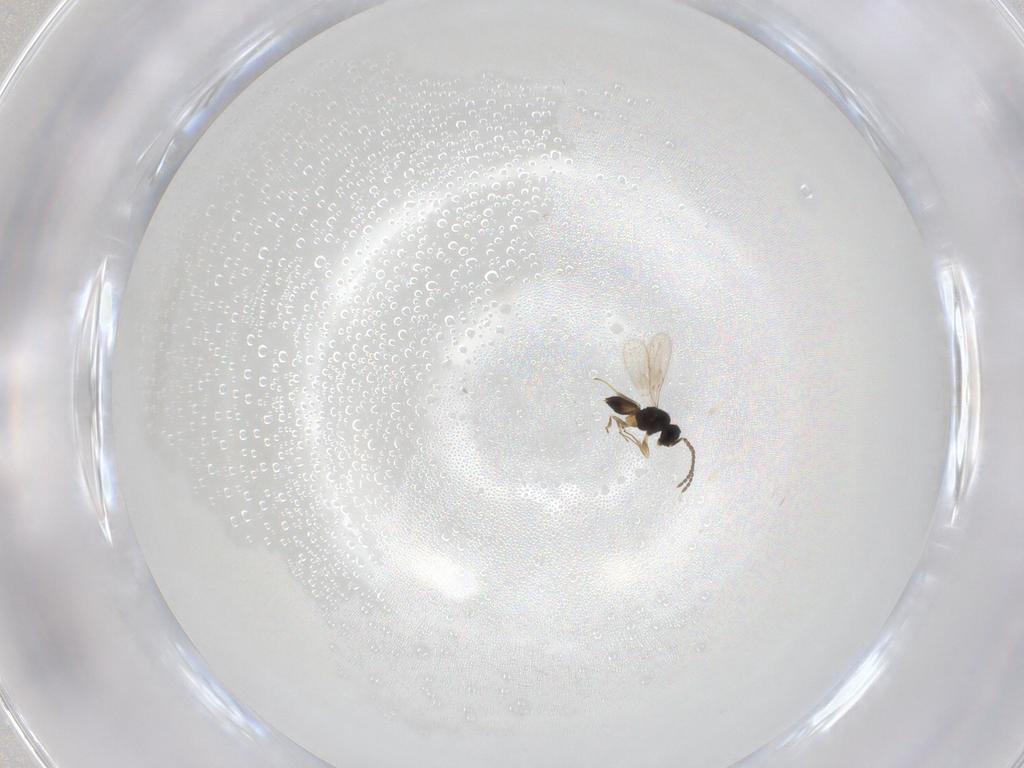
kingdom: Animalia
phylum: Arthropoda
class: Insecta
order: Hymenoptera
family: Scelionidae
